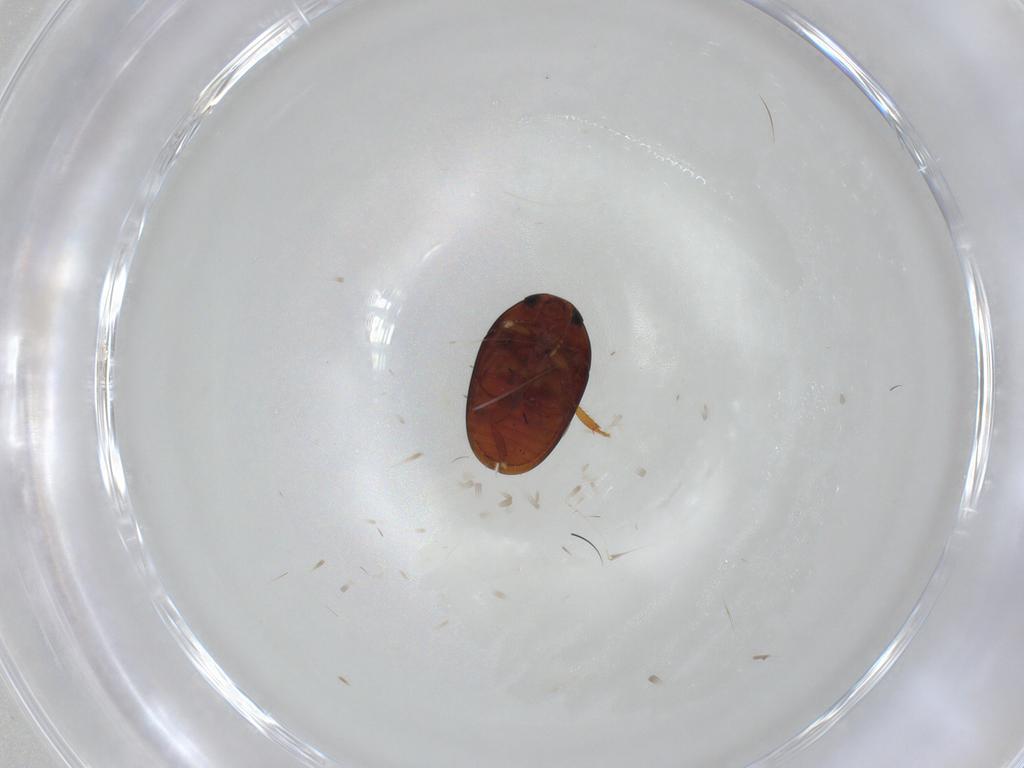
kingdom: Animalia
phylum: Arthropoda
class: Insecta
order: Coleoptera
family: Phalacridae
